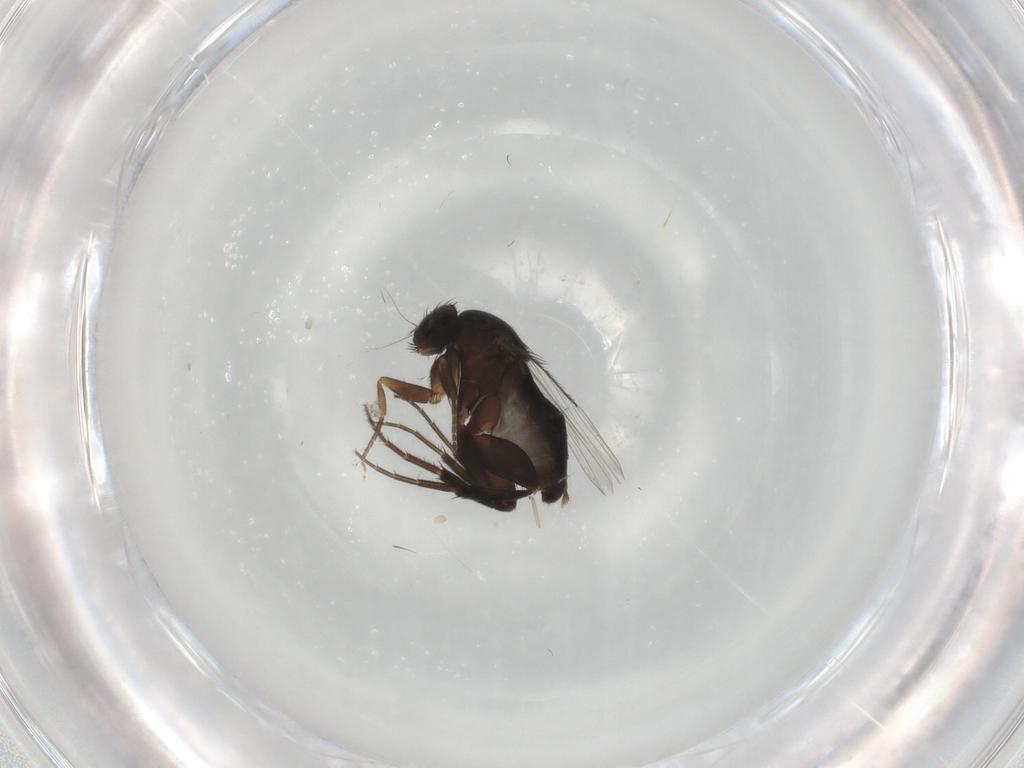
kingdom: Animalia
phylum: Arthropoda
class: Insecta
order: Diptera
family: Phoridae
